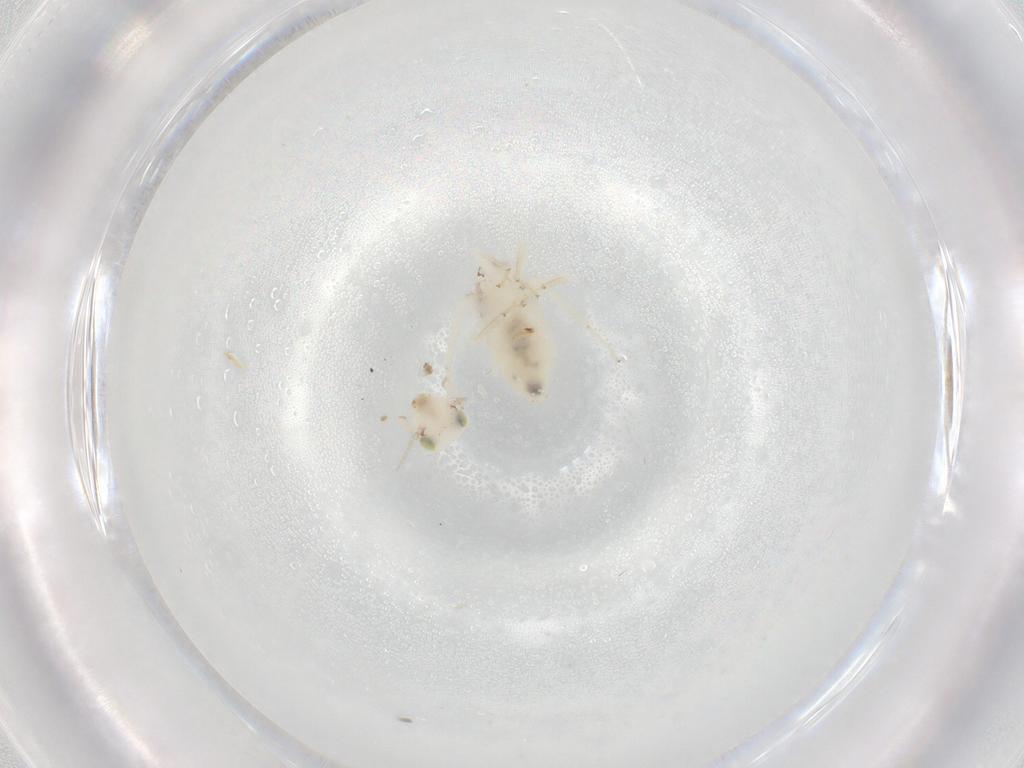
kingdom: Animalia
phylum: Arthropoda
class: Insecta
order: Psocodea
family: Lepidopsocidae
